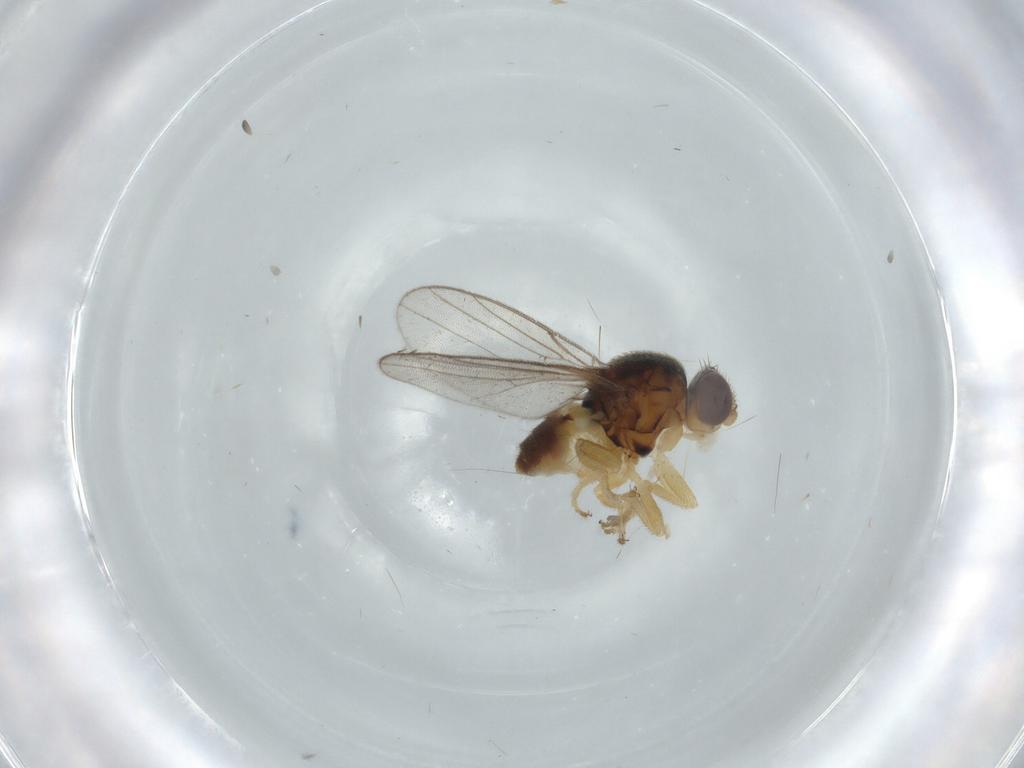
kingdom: Animalia
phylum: Arthropoda
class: Insecta
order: Diptera
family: Chloropidae
